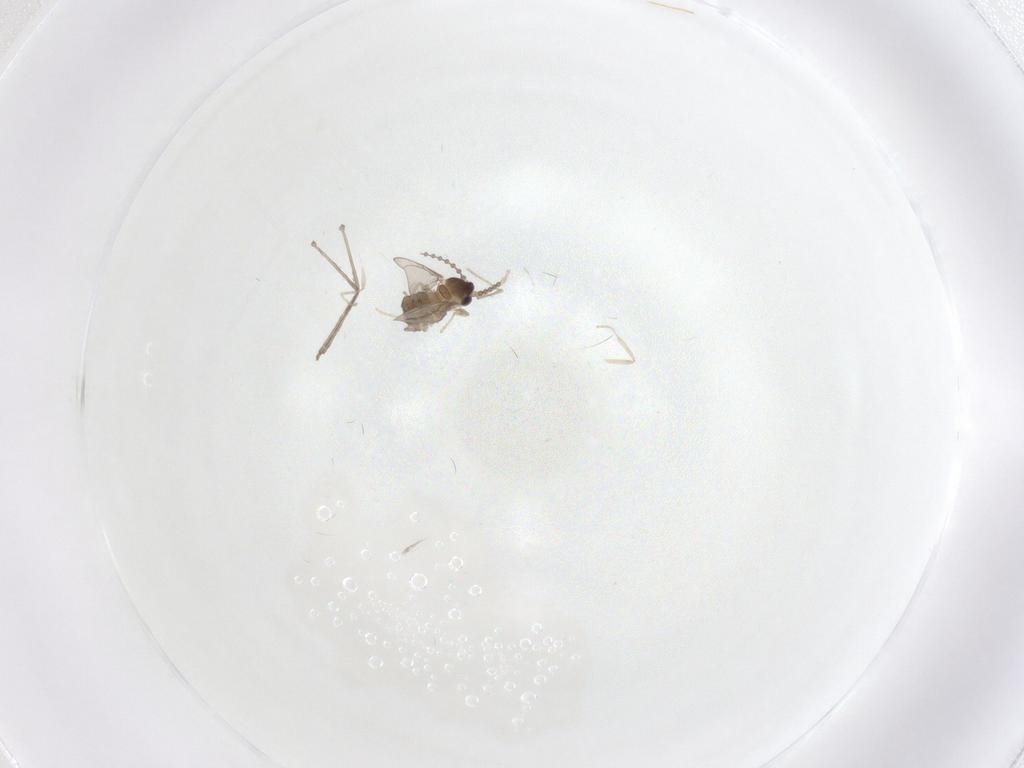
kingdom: Animalia
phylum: Arthropoda
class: Insecta
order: Diptera
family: Cecidomyiidae
